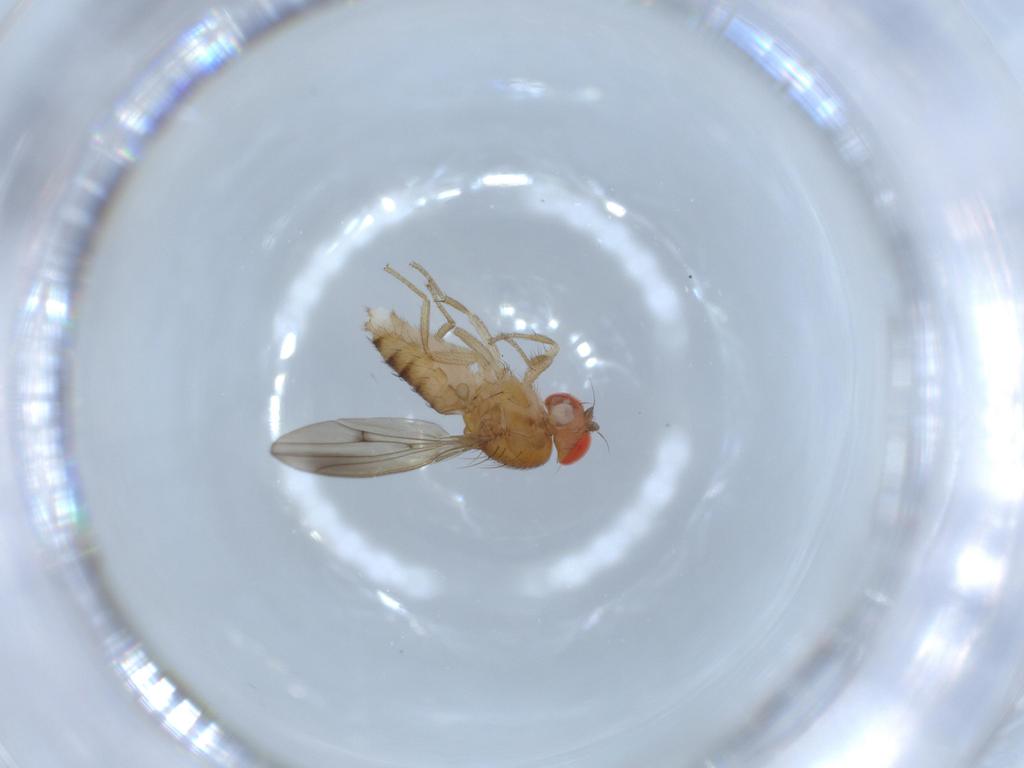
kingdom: Animalia
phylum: Arthropoda
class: Insecta
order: Diptera
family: Drosophilidae
